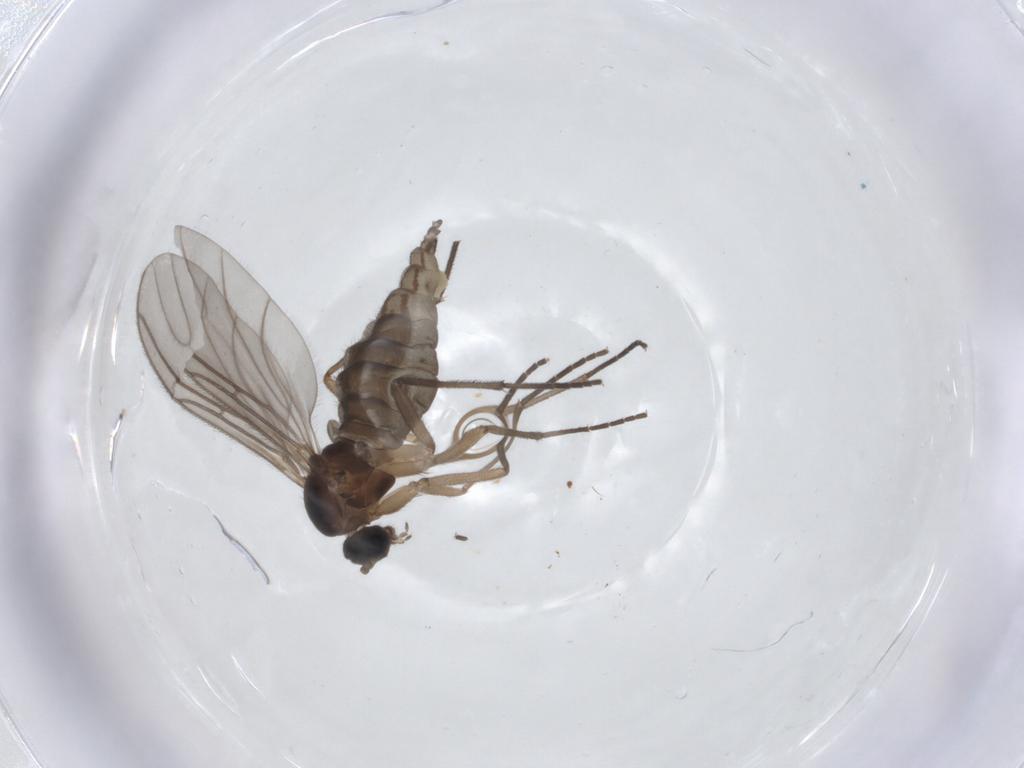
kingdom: Animalia
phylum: Arthropoda
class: Insecta
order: Diptera
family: Sciaridae
